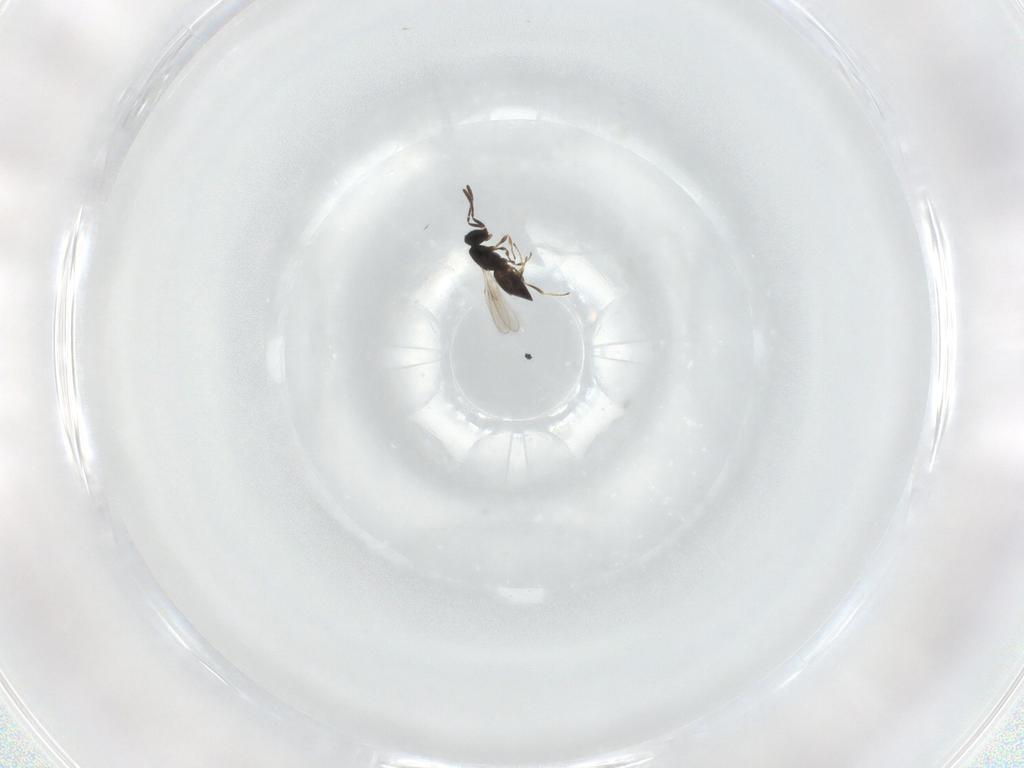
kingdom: Animalia
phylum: Arthropoda
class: Insecta
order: Hymenoptera
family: Scelionidae
